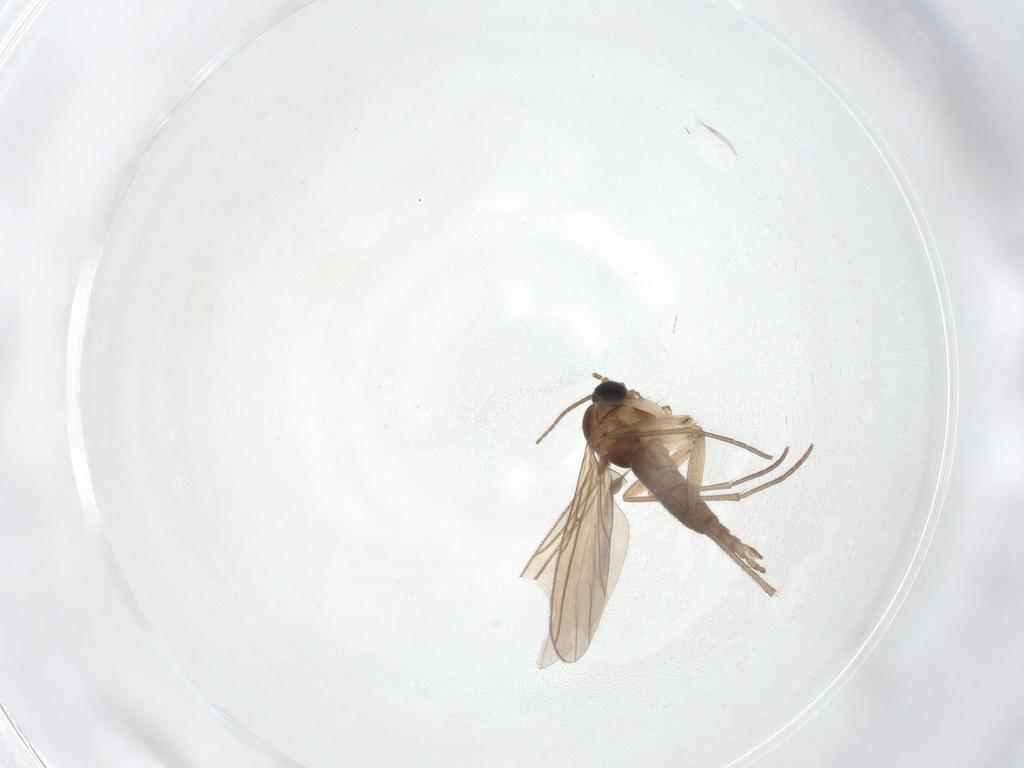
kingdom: Animalia
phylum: Arthropoda
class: Insecta
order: Diptera
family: Sciaridae
